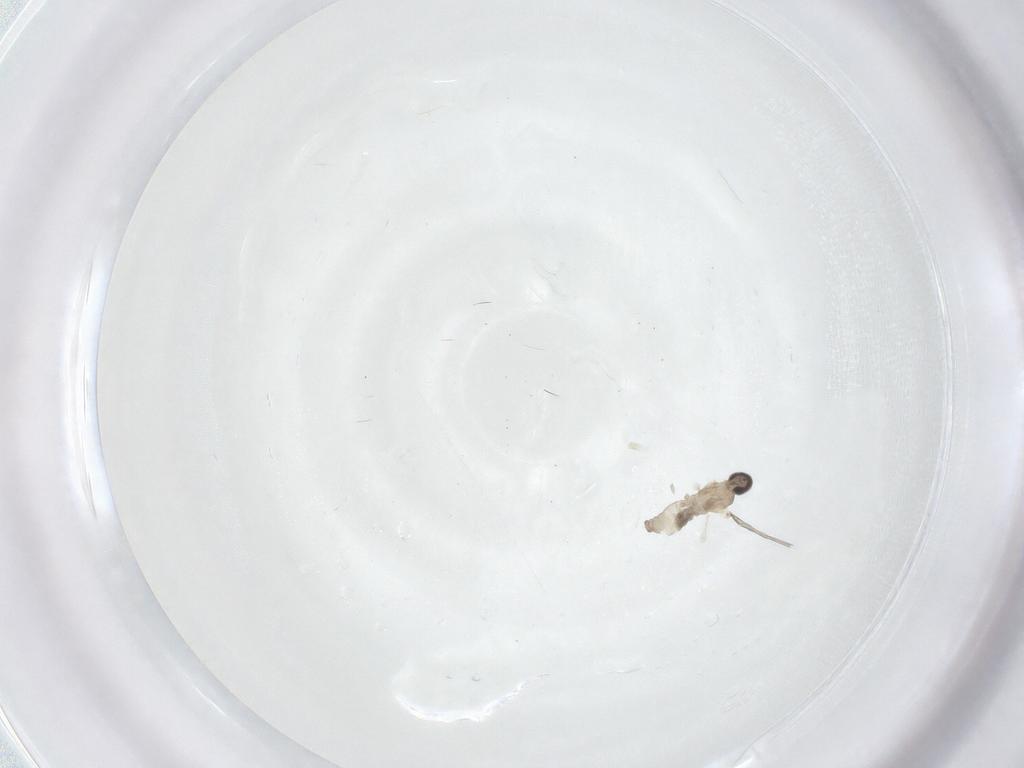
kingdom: Animalia
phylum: Arthropoda
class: Insecta
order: Diptera
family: Cecidomyiidae
